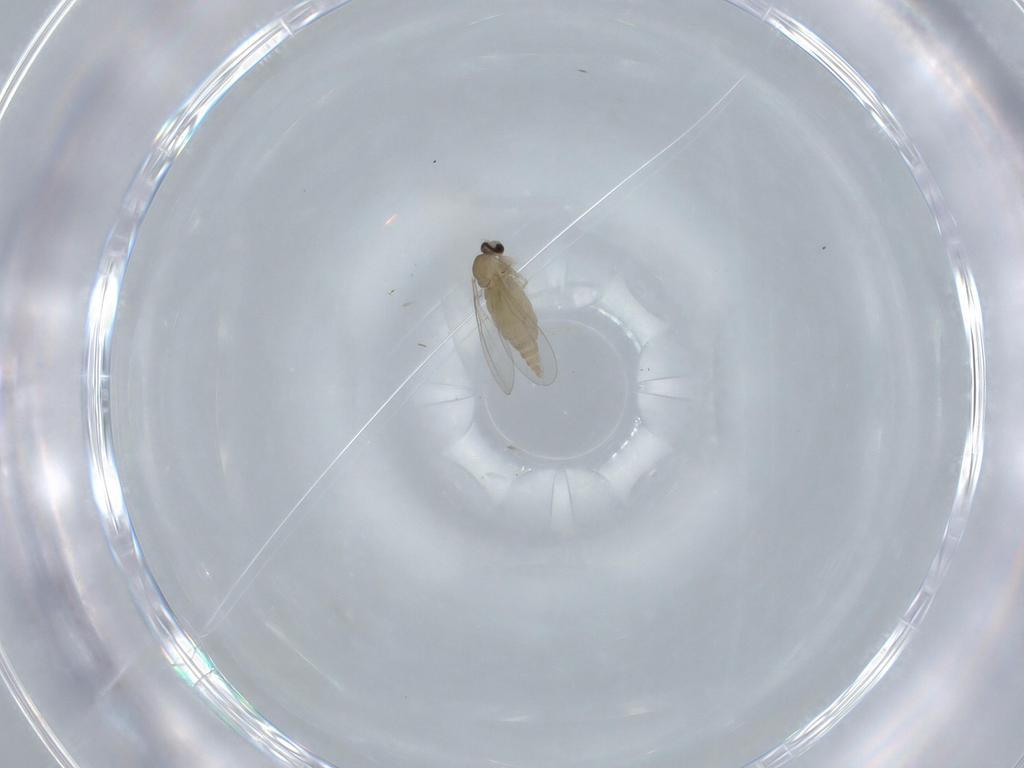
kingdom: Animalia
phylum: Arthropoda
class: Insecta
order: Diptera
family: Cecidomyiidae
